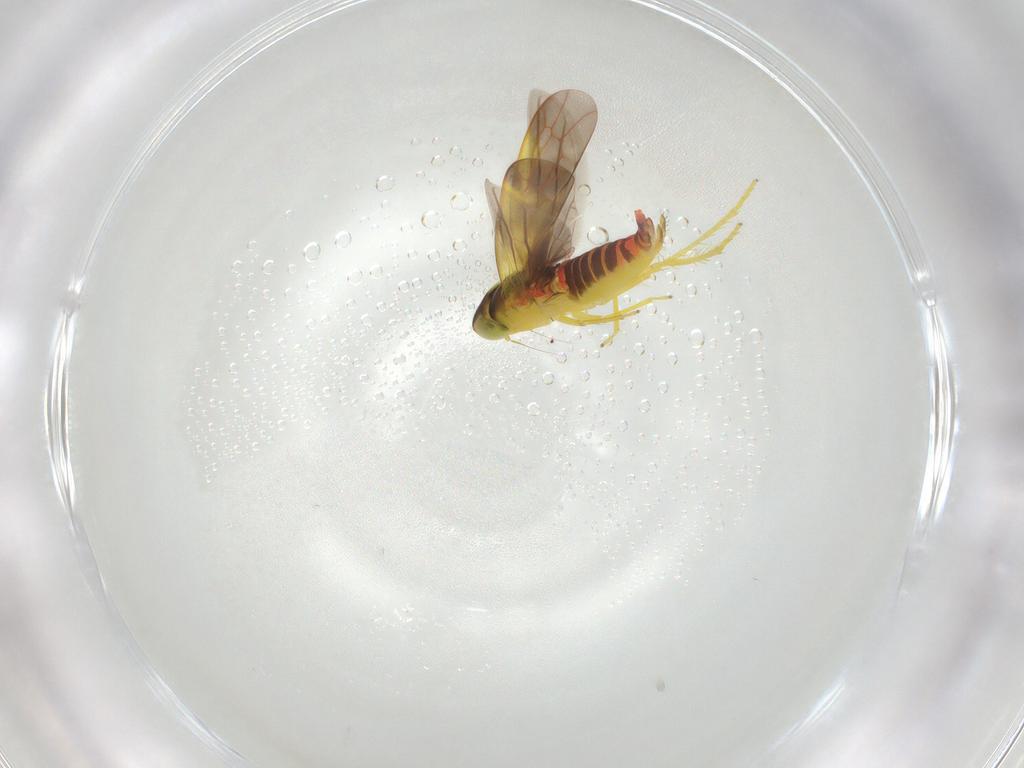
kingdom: Animalia
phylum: Arthropoda
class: Insecta
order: Hemiptera
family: Cicadellidae
